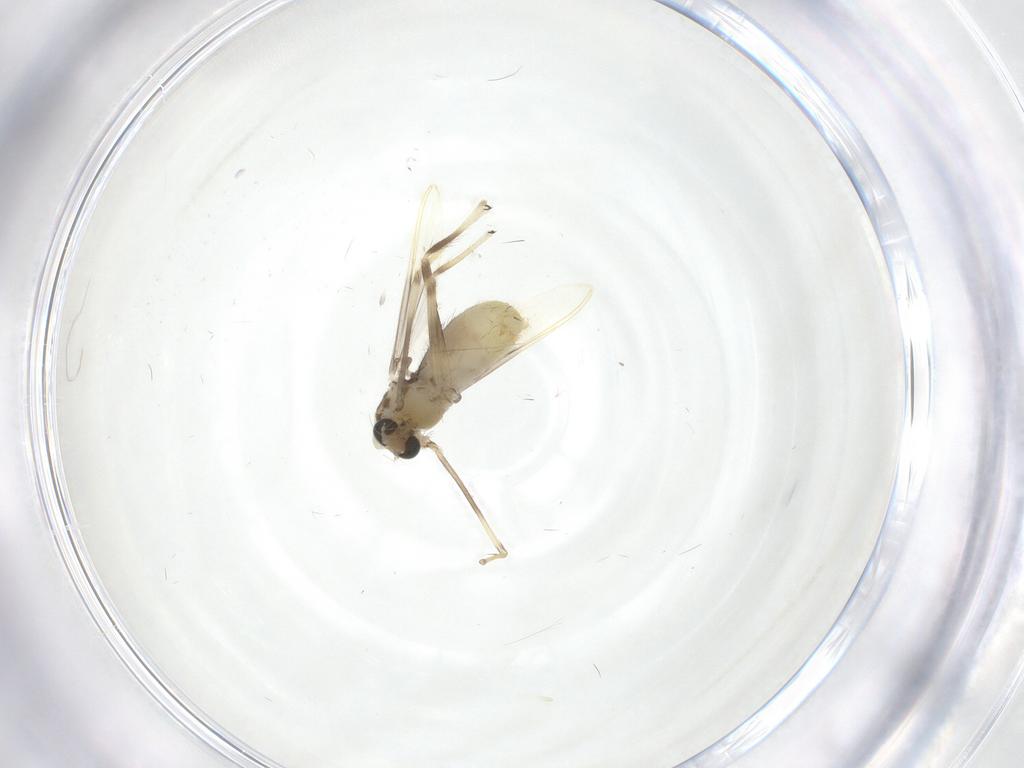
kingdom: Animalia
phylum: Arthropoda
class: Insecta
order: Diptera
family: Chironomidae
